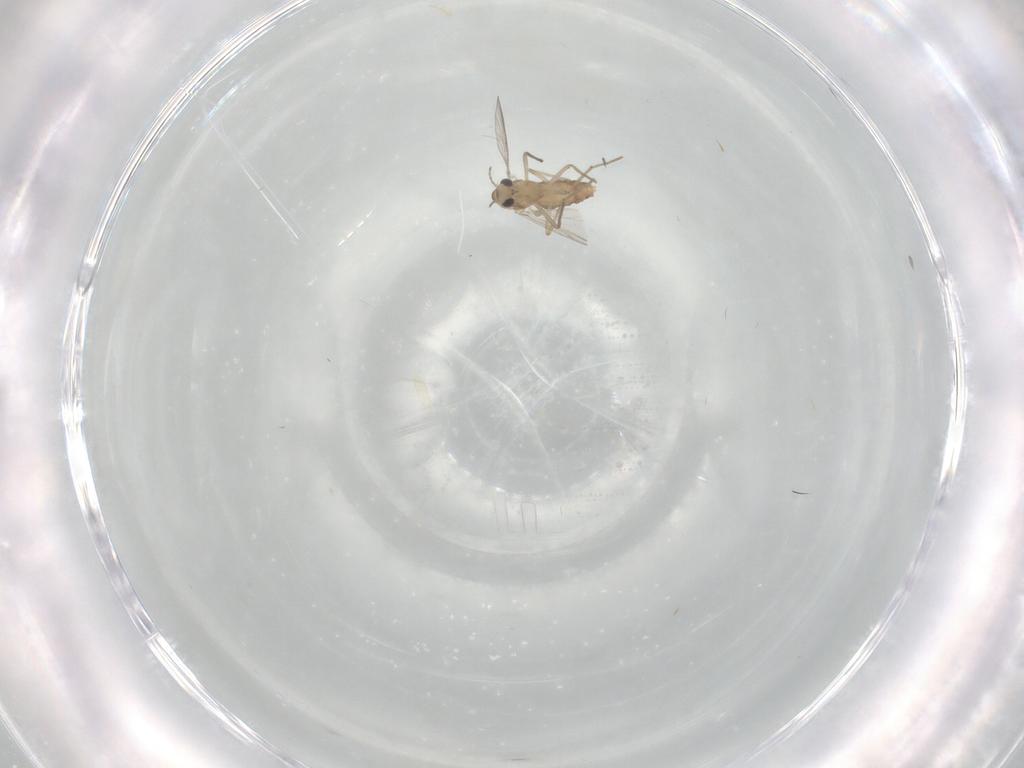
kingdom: Animalia
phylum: Arthropoda
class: Insecta
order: Diptera
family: Chironomidae
